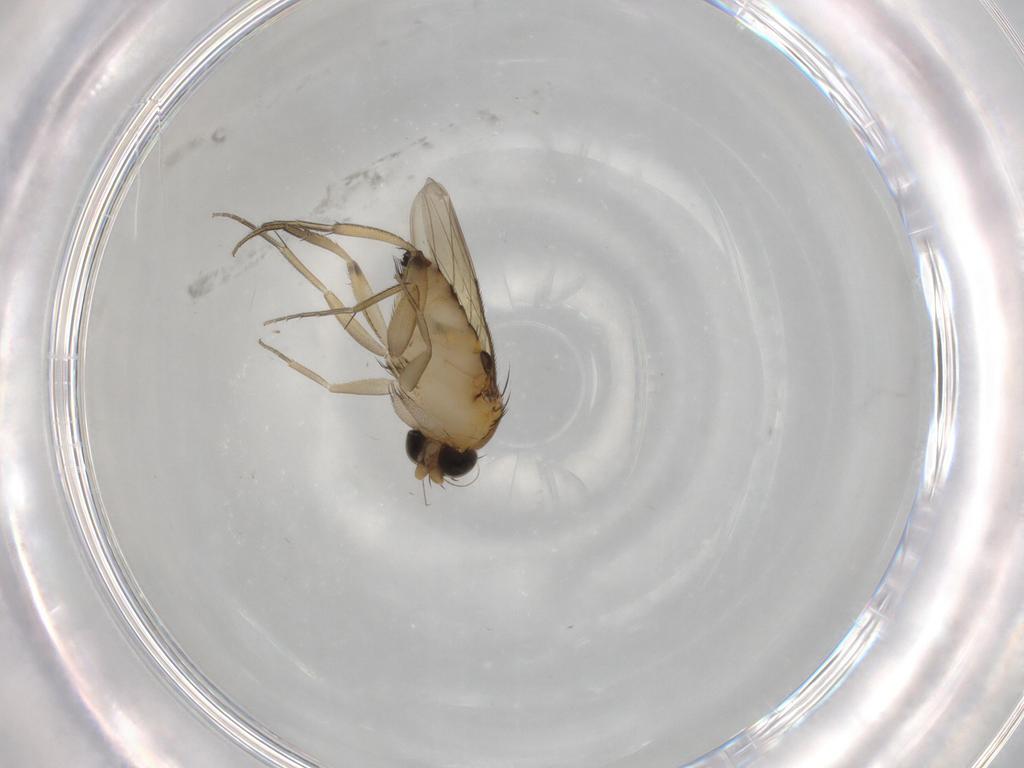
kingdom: Animalia
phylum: Arthropoda
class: Insecta
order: Diptera
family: Phoridae
